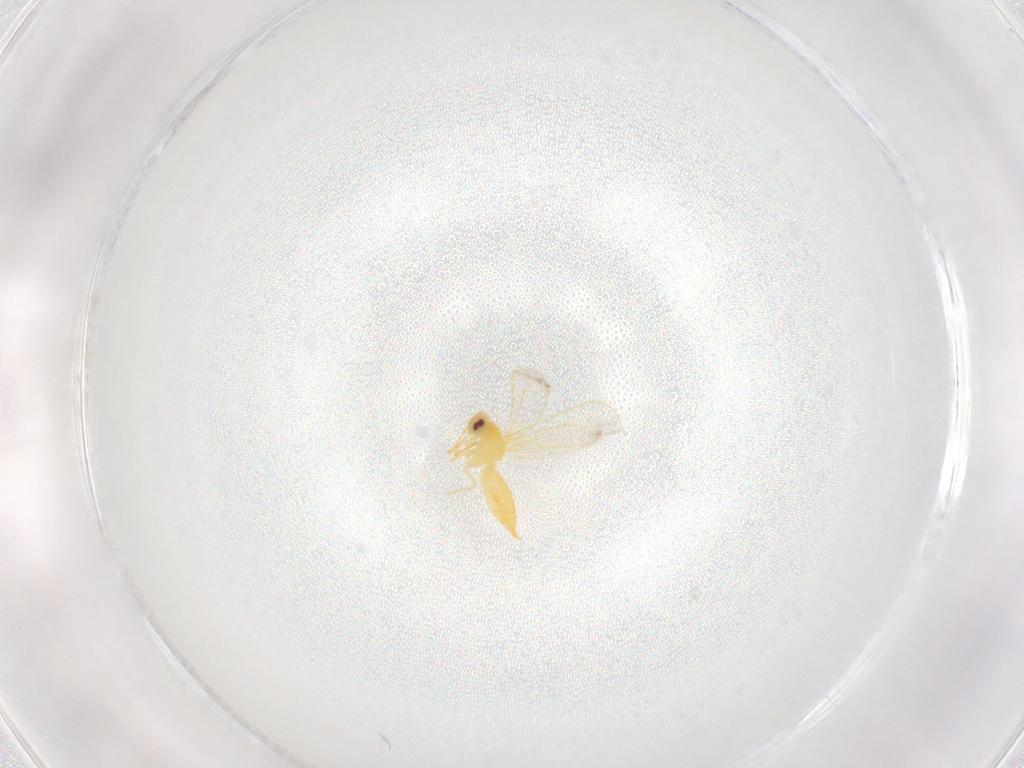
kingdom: Animalia
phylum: Arthropoda
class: Insecta
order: Hemiptera
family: Aleyrodidae
